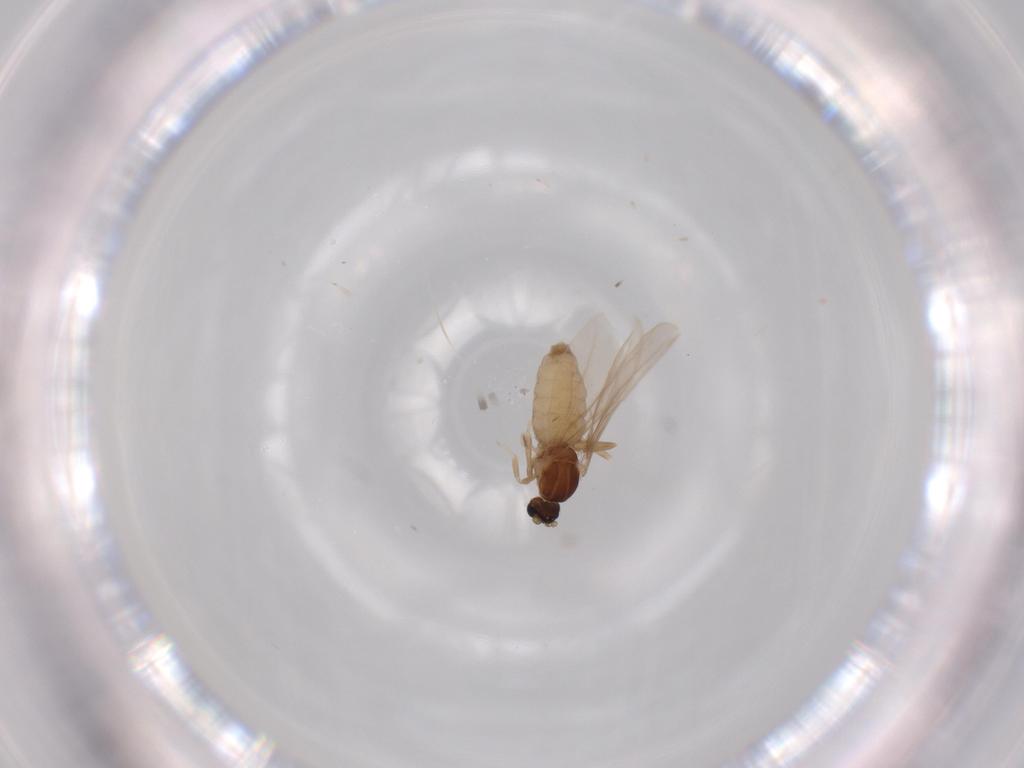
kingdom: Animalia
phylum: Arthropoda
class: Insecta
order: Diptera
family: Cecidomyiidae
